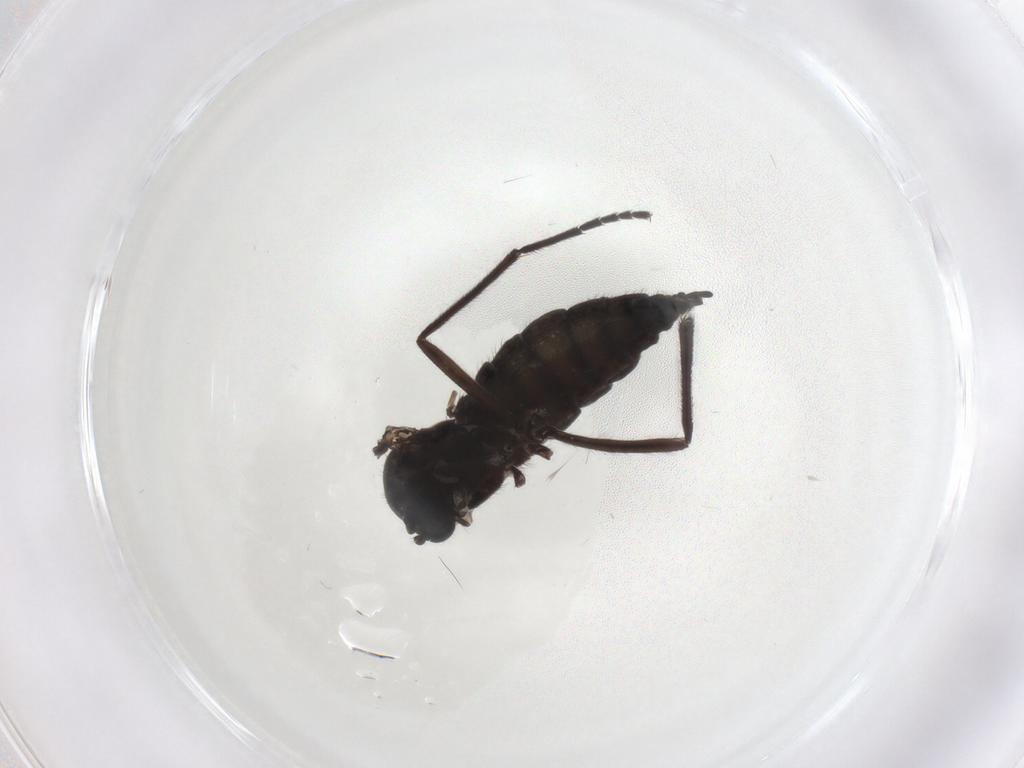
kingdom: Animalia
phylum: Arthropoda
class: Insecta
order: Diptera
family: Sciaridae
